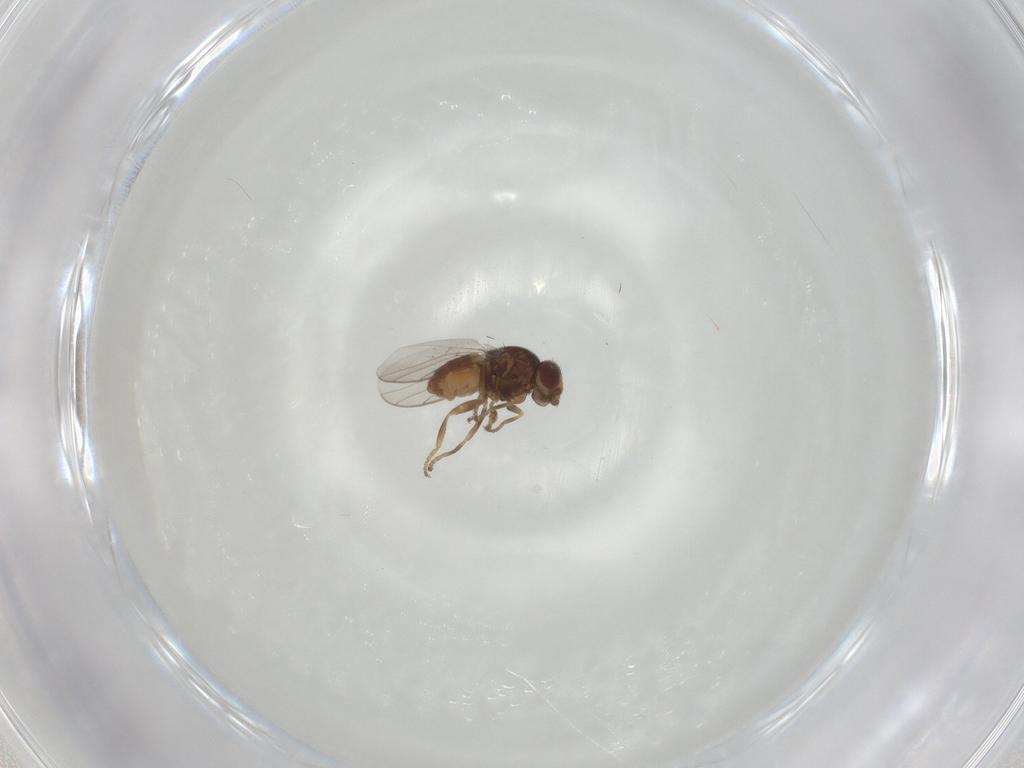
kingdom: Animalia
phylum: Arthropoda
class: Insecta
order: Diptera
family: Chloropidae
